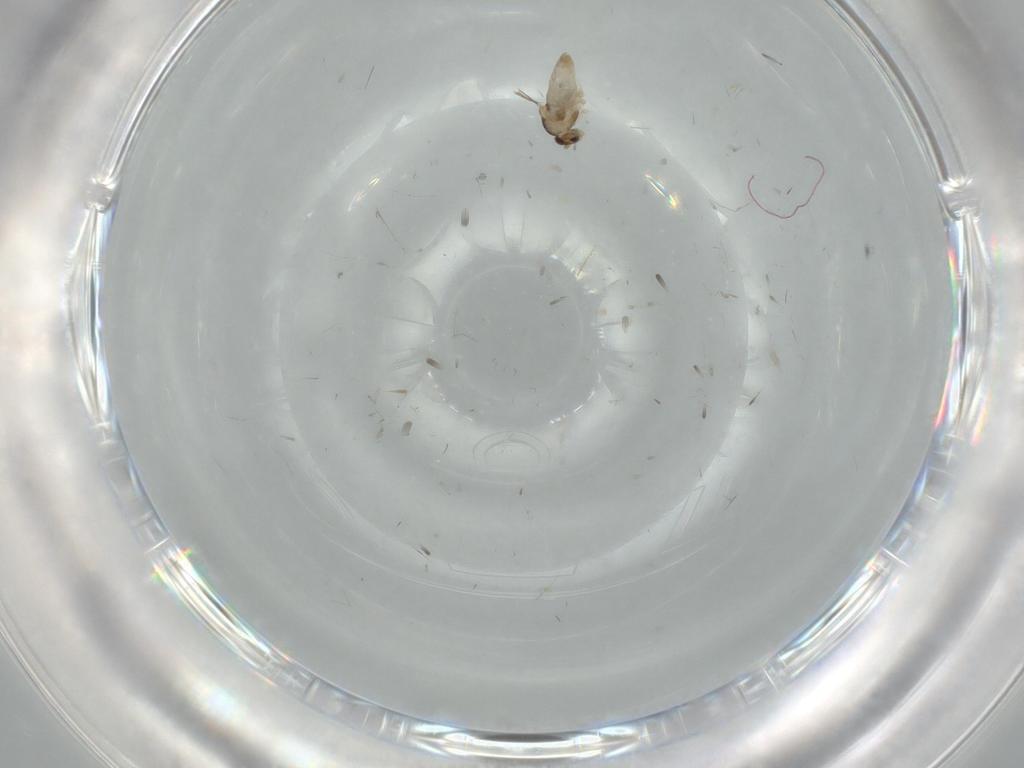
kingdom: Animalia
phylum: Arthropoda
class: Insecta
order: Diptera
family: Cecidomyiidae
